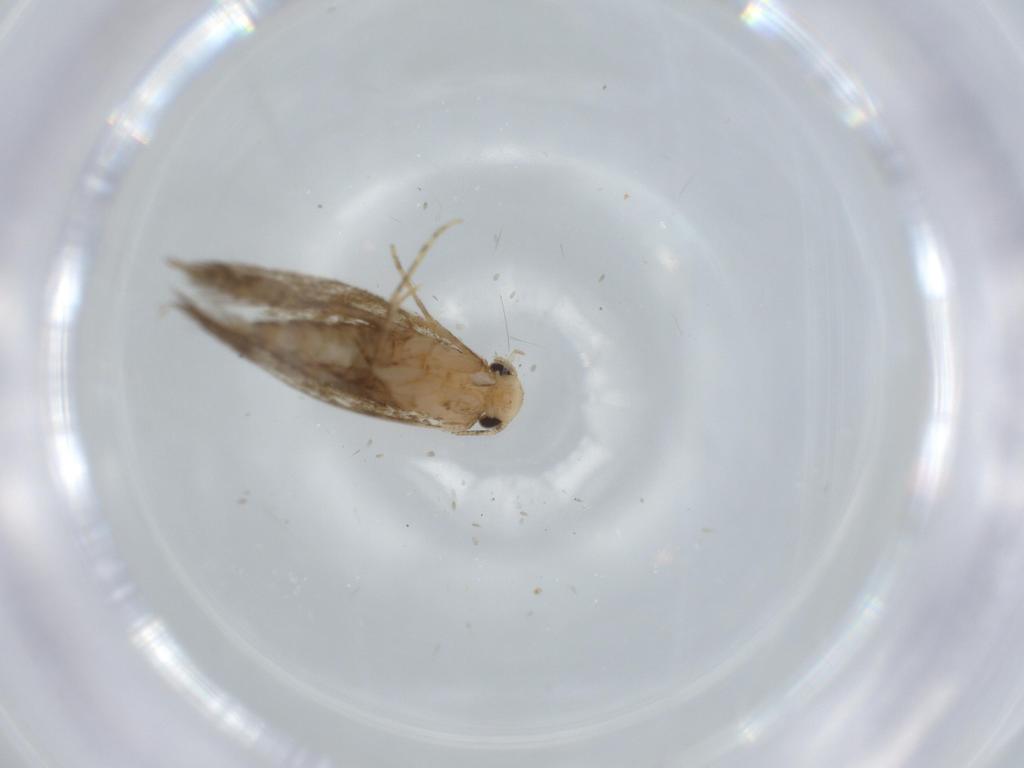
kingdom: Animalia
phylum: Arthropoda
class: Insecta
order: Lepidoptera
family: Tineidae
